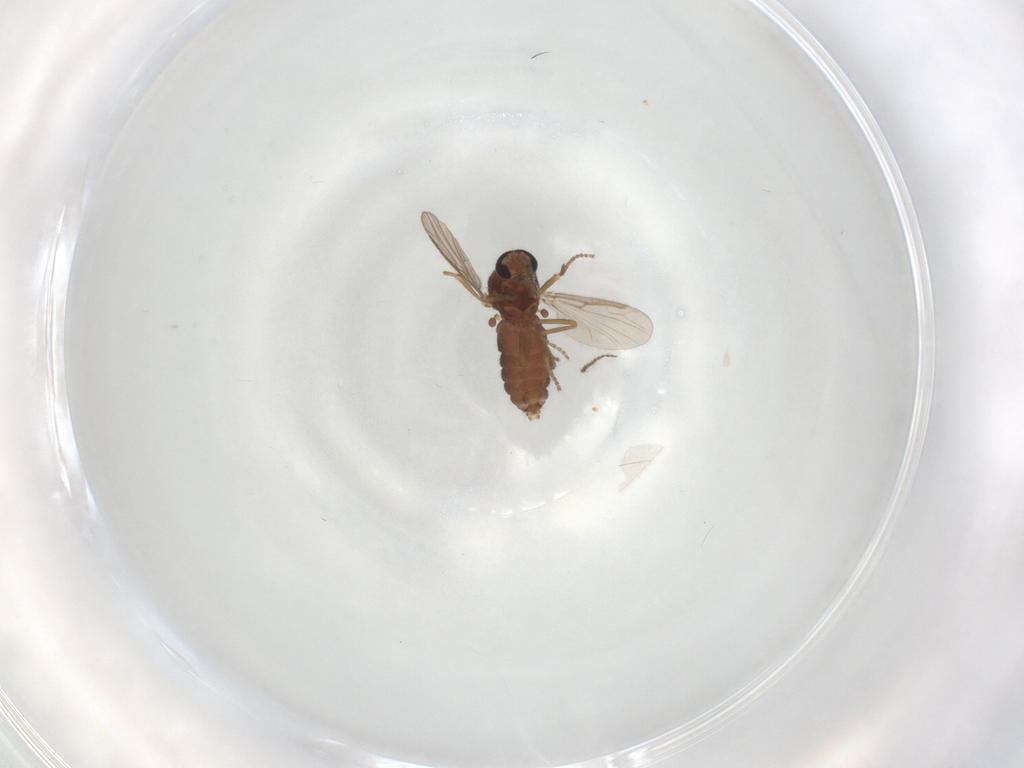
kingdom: Animalia
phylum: Arthropoda
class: Insecta
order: Diptera
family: Ceratopogonidae
